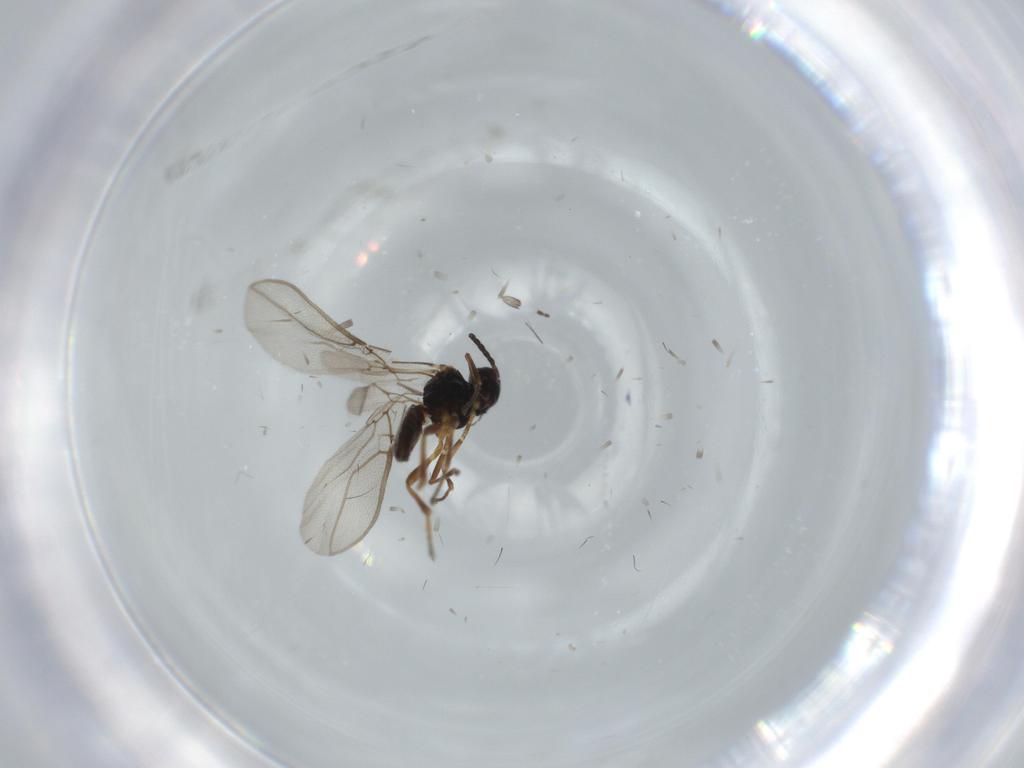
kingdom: Animalia
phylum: Arthropoda
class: Insecta
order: Hymenoptera
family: Braconidae
